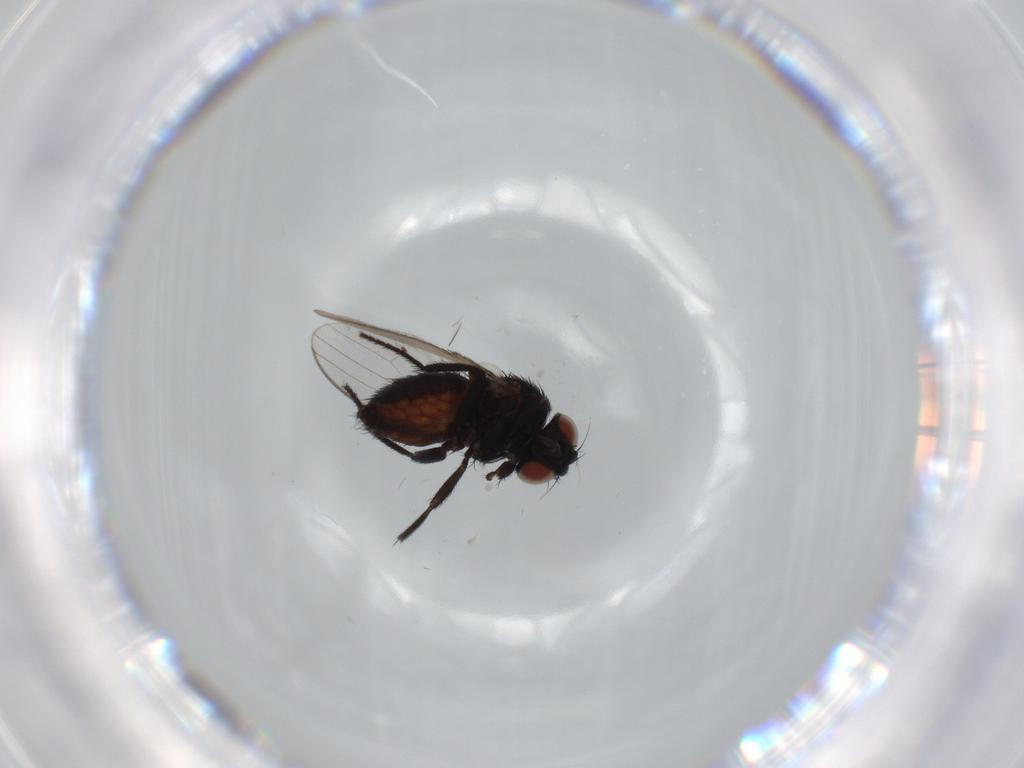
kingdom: Animalia
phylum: Arthropoda
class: Insecta
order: Diptera
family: Milichiidae
